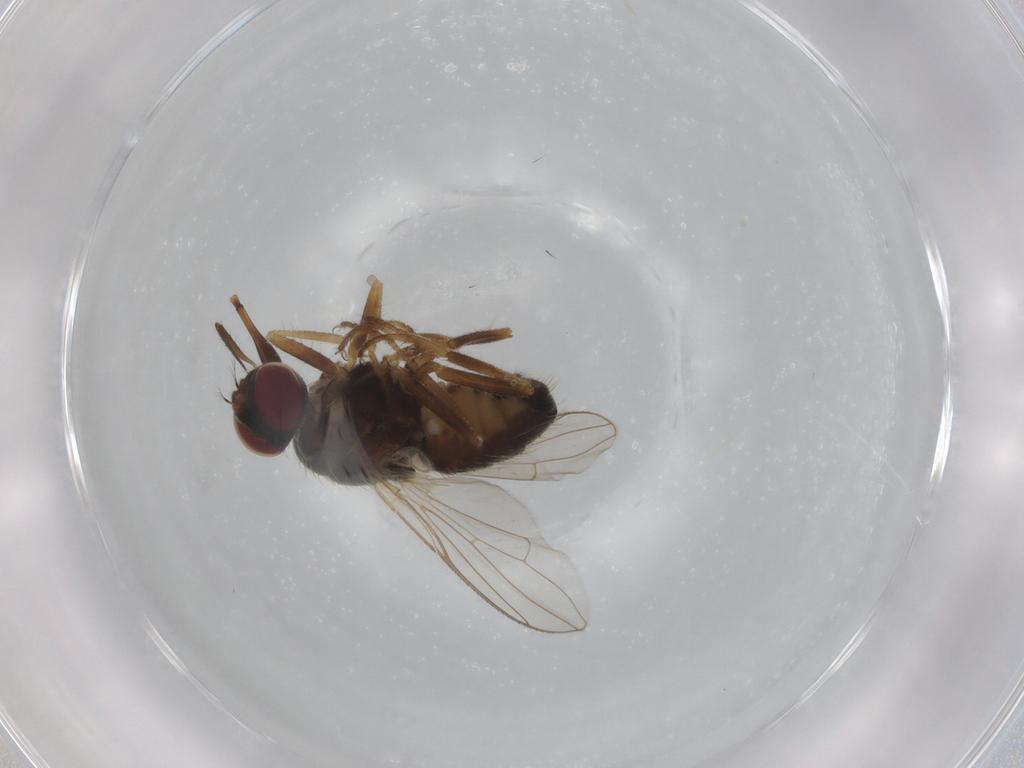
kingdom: Animalia
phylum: Arthropoda
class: Insecta
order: Diptera
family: Muscidae
